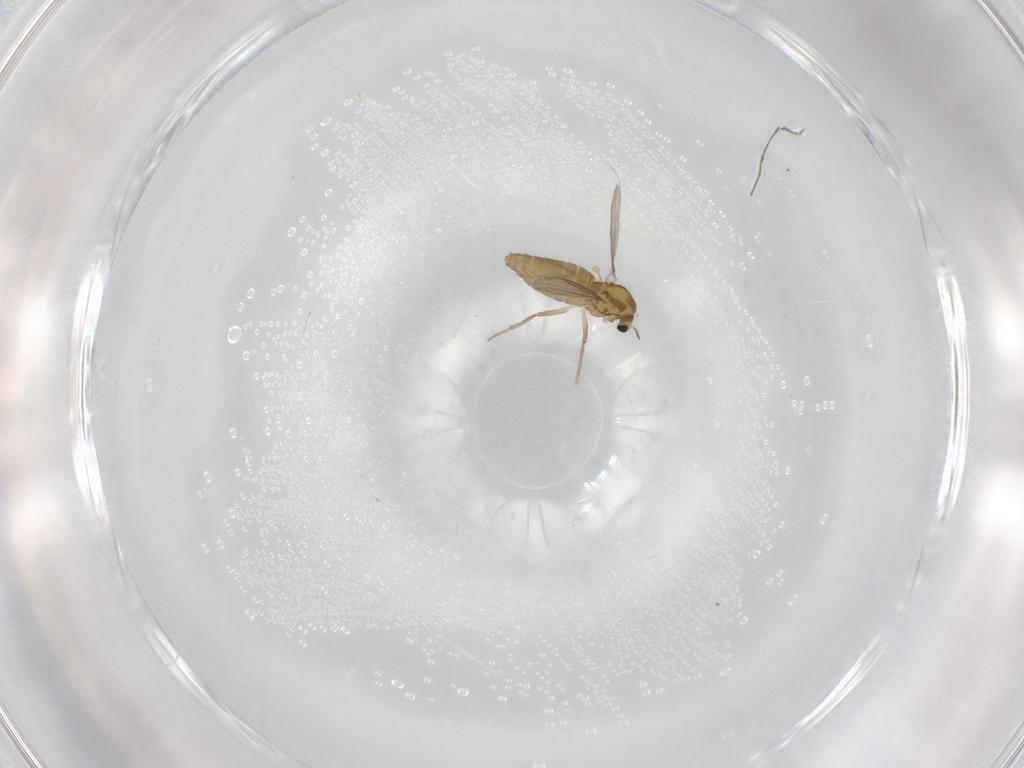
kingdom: Animalia
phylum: Arthropoda
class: Insecta
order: Diptera
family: Chironomidae
